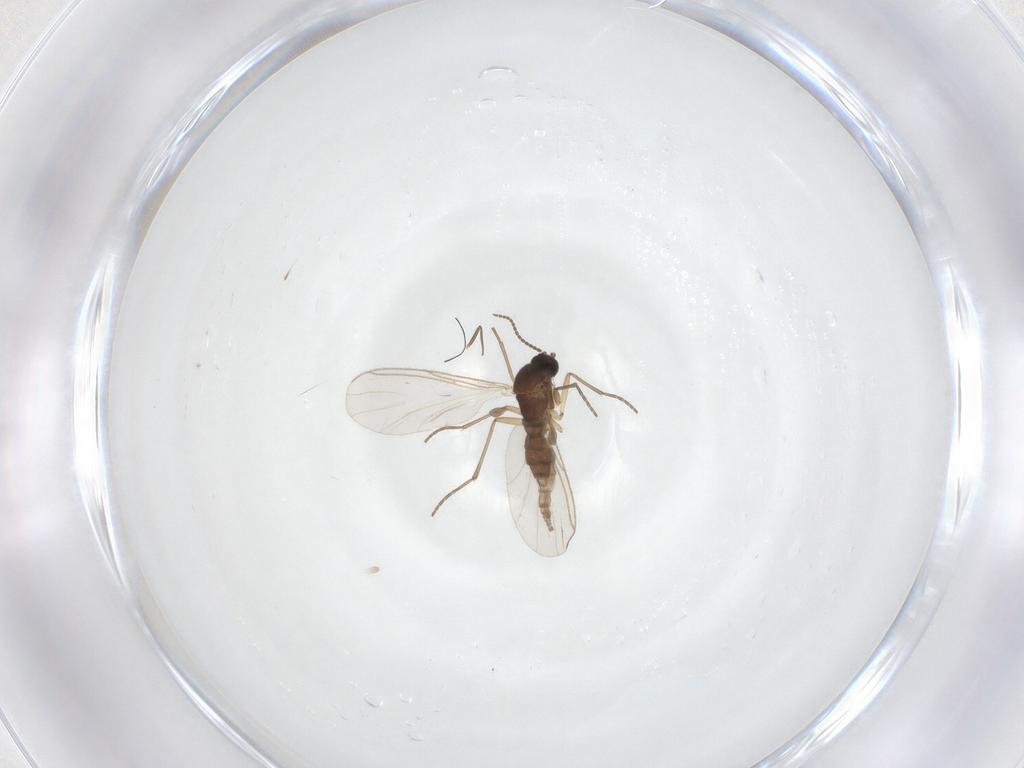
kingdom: Animalia
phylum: Arthropoda
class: Insecta
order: Diptera
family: Sciaridae
